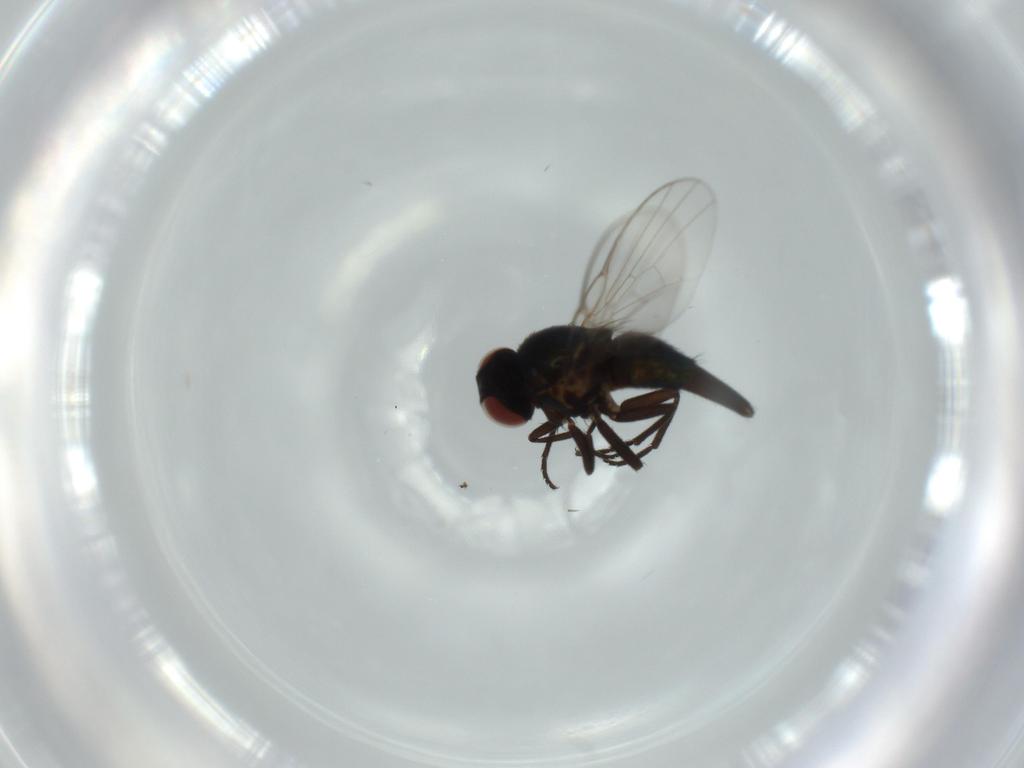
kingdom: Animalia
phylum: Arthropoda
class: Insecta
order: Diptera
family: Agromyzidae
